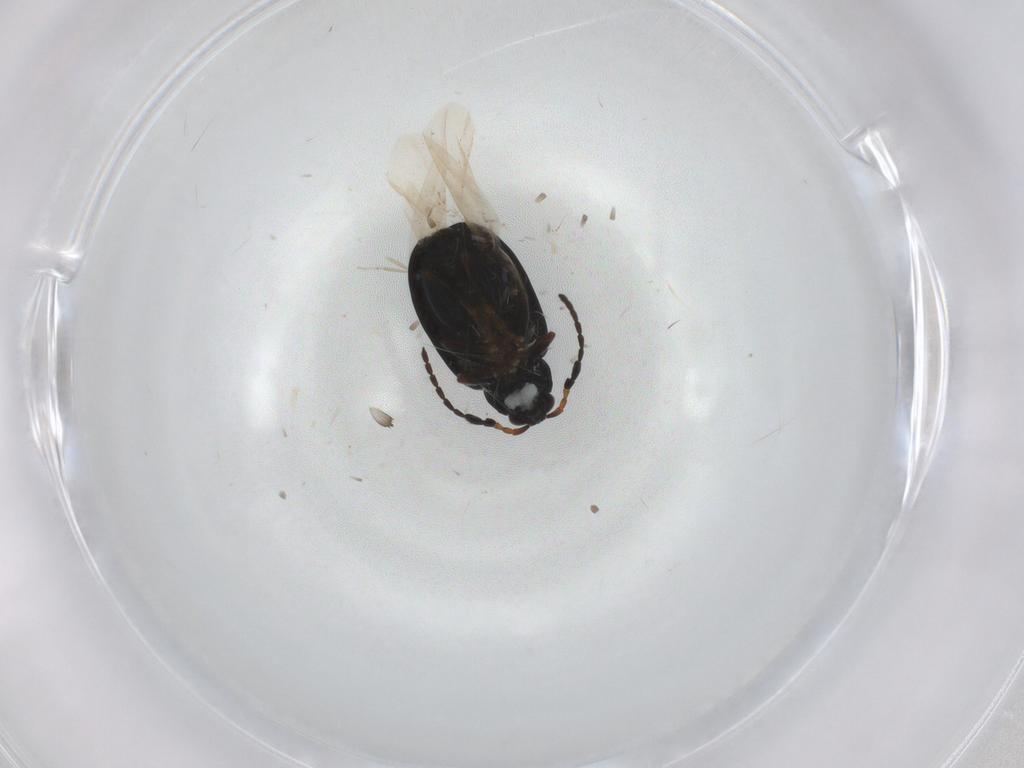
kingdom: Animalia
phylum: Arthropoda
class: Insecta
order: Coleoptera
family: Chrysomelidae
